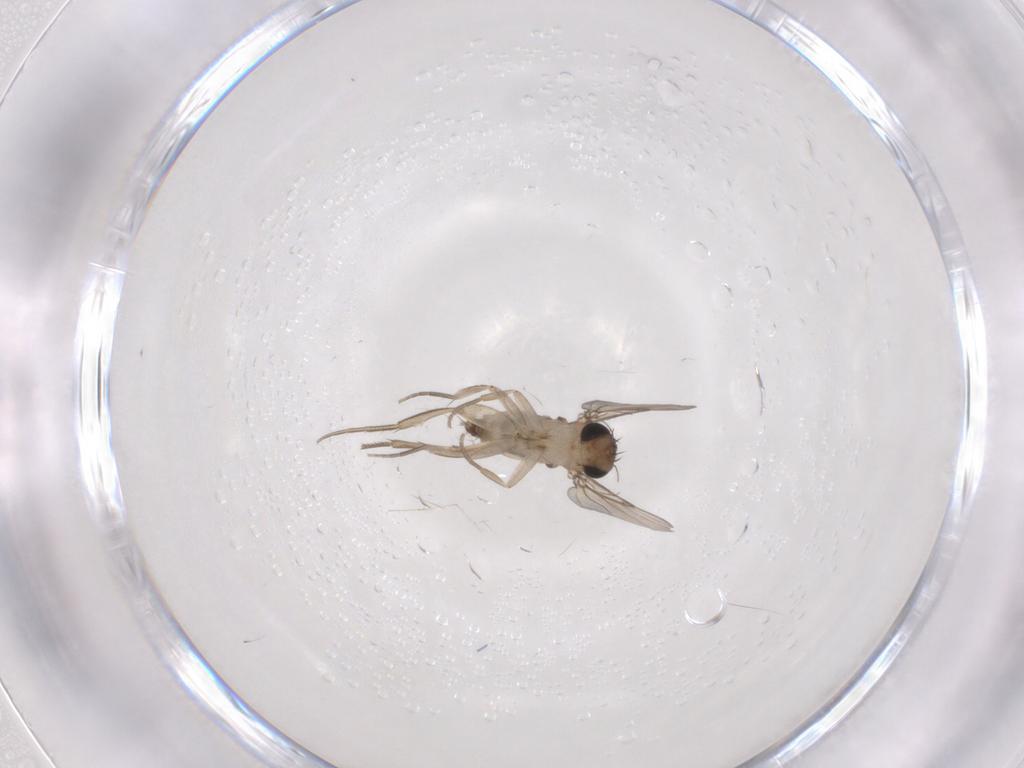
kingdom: Animalia
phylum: Arthropoda
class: Insecta
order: Diptera
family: Phoridae
